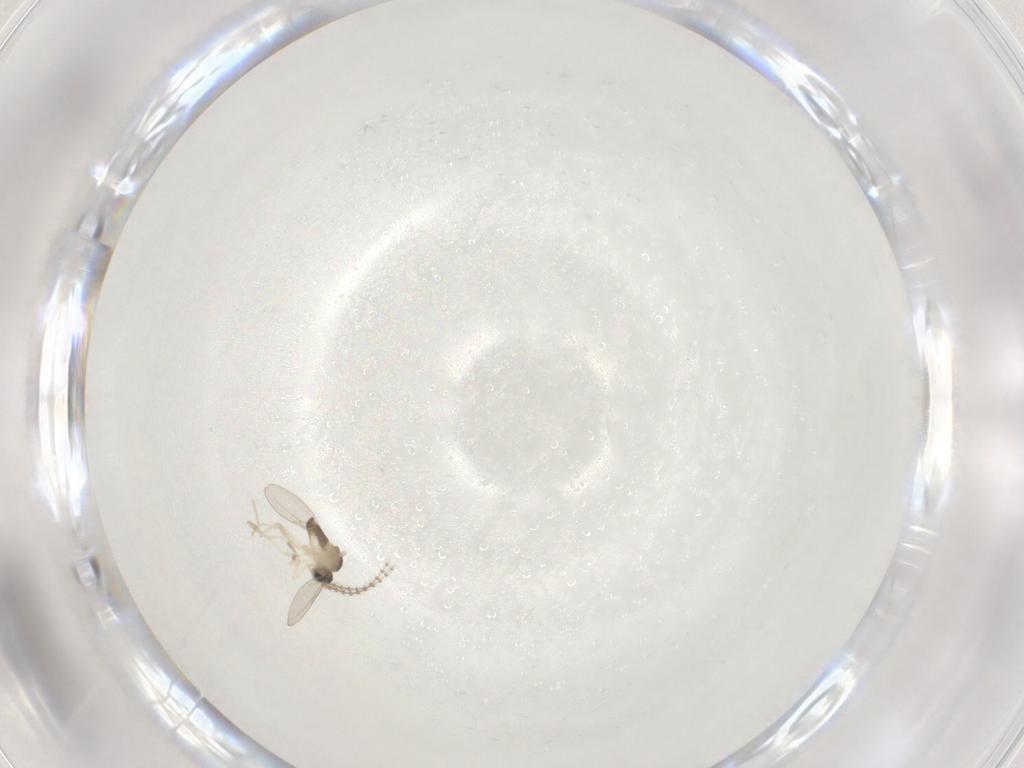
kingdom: Animalia
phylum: Arthropoda
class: Insecta
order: Diptera
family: Cecidomyiidae
